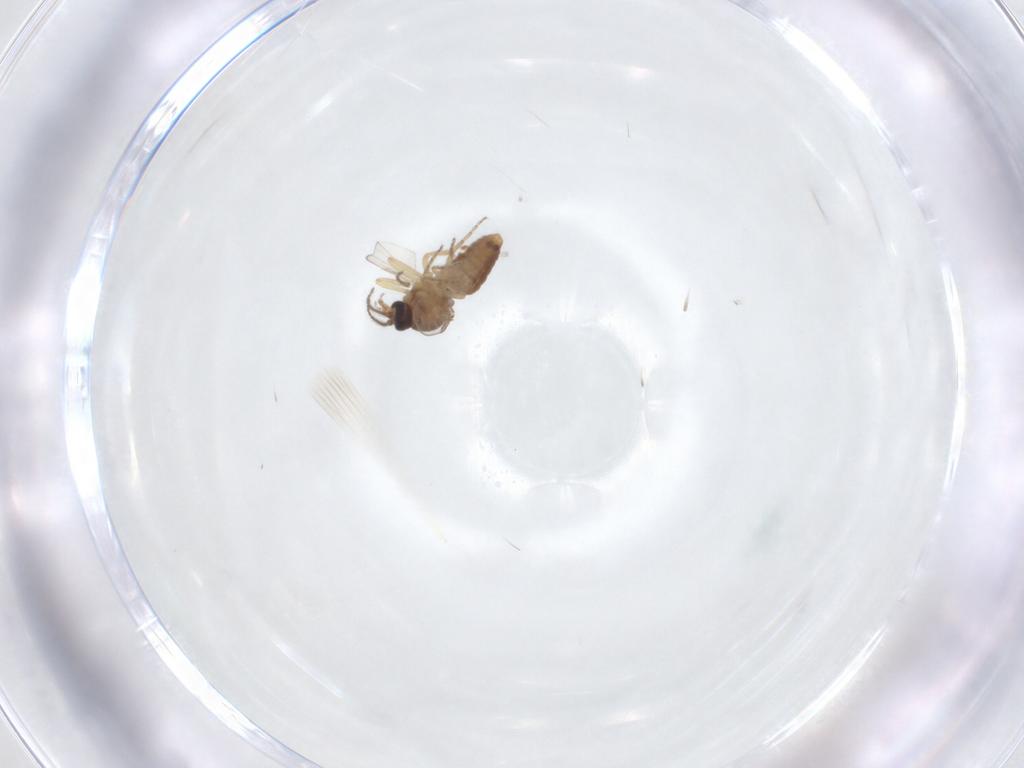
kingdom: Animalia
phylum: Arthropoda
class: Insecta
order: Diptera
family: Ceratopogonidae
